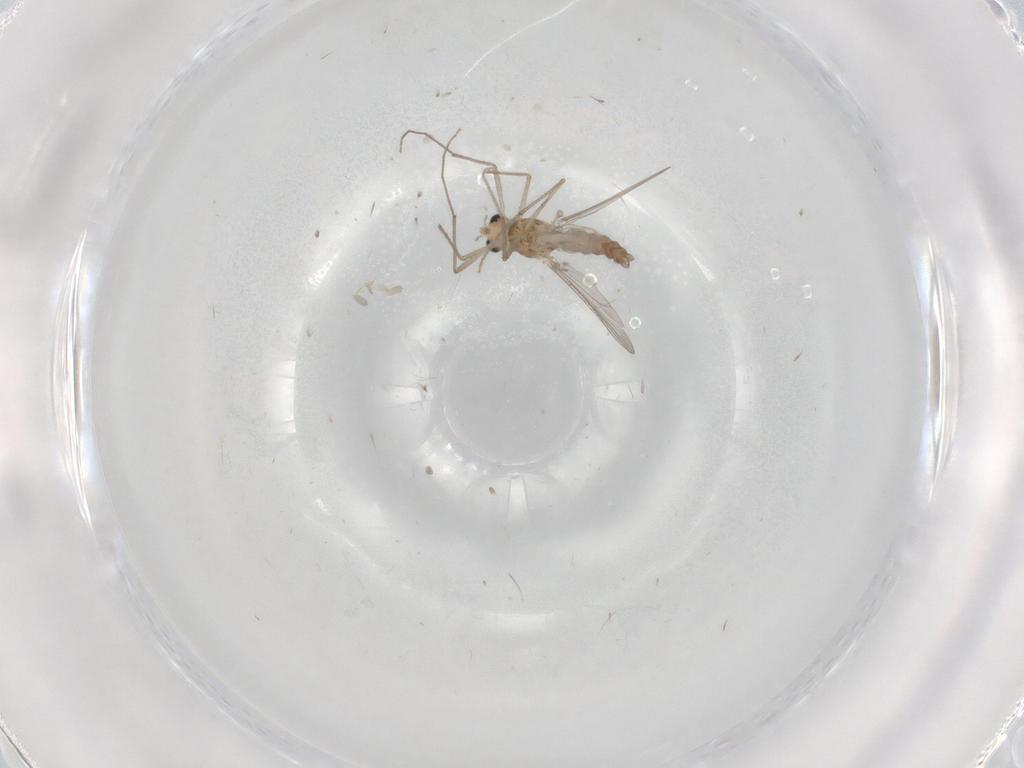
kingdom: Animalia
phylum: Arthropoda
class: Insecta
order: Diptera
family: Chironomidae
